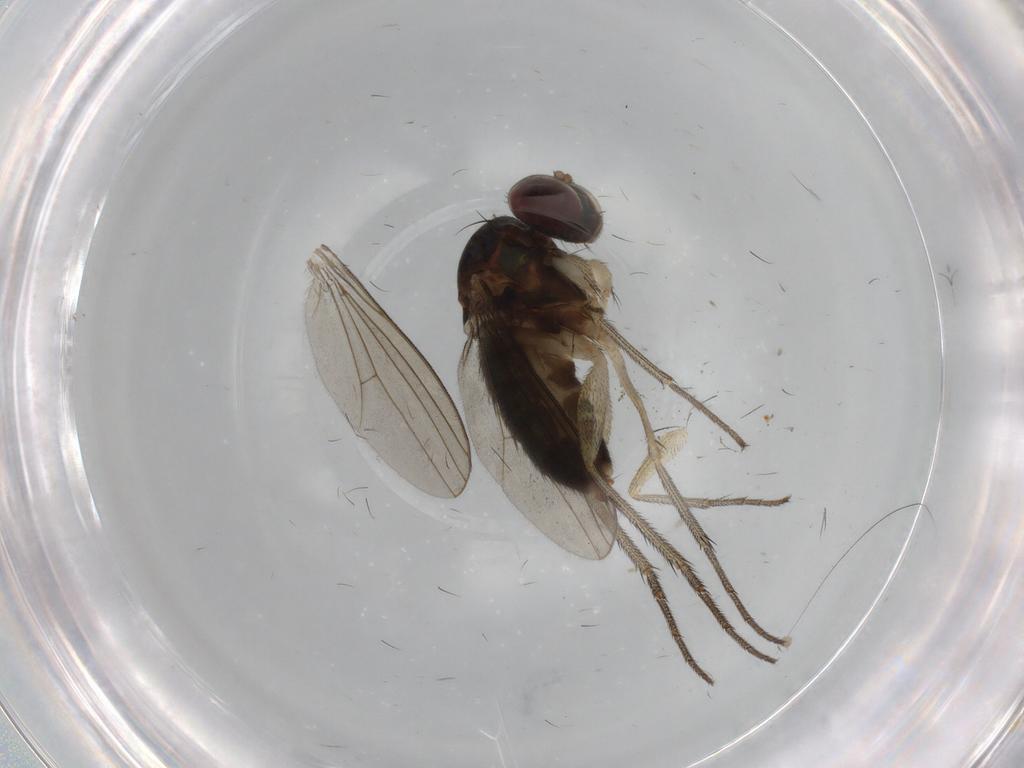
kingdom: Animalia
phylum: Arthropoda
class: Insecta
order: Diptera
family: Dolichopodidae
